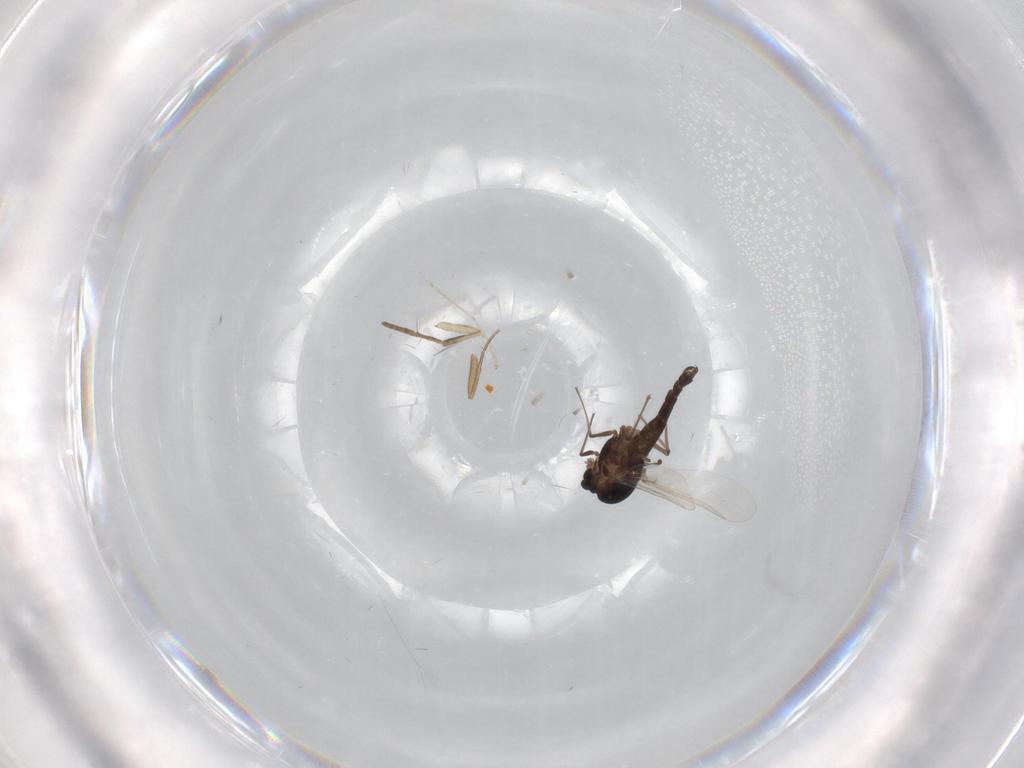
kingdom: Animalia
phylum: Arthropoda
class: Insecta
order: Diptera
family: Chironomidae
